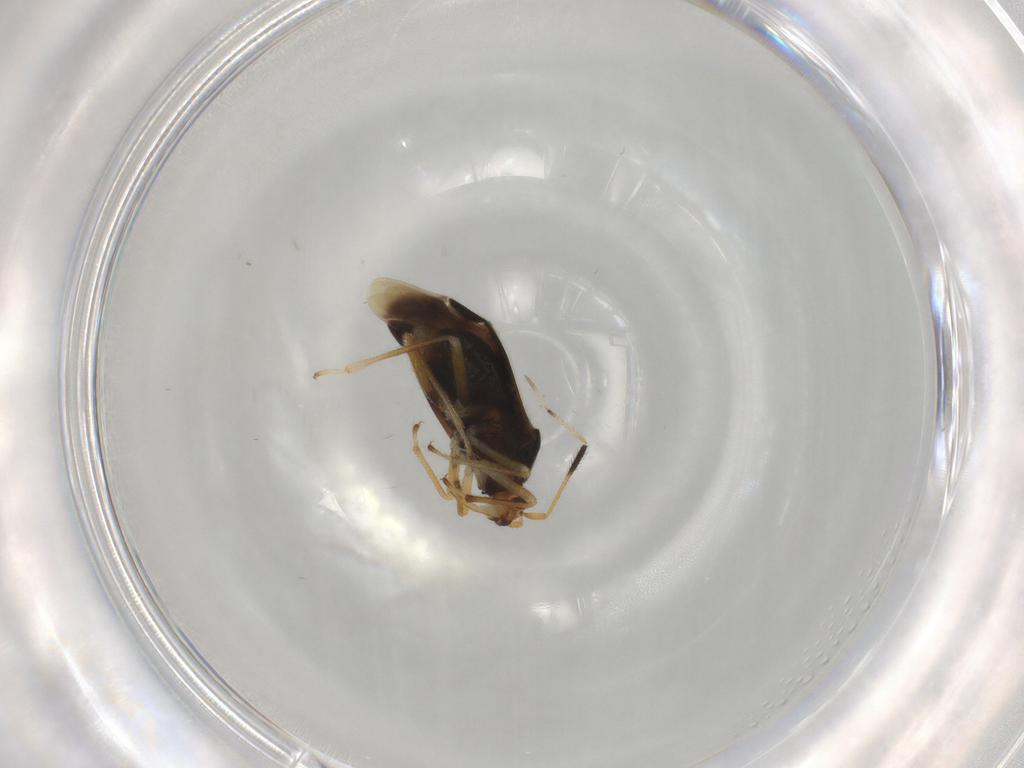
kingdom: Animalia
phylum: Arthropoda
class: Insecta
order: Hemiptera
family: Miridae
